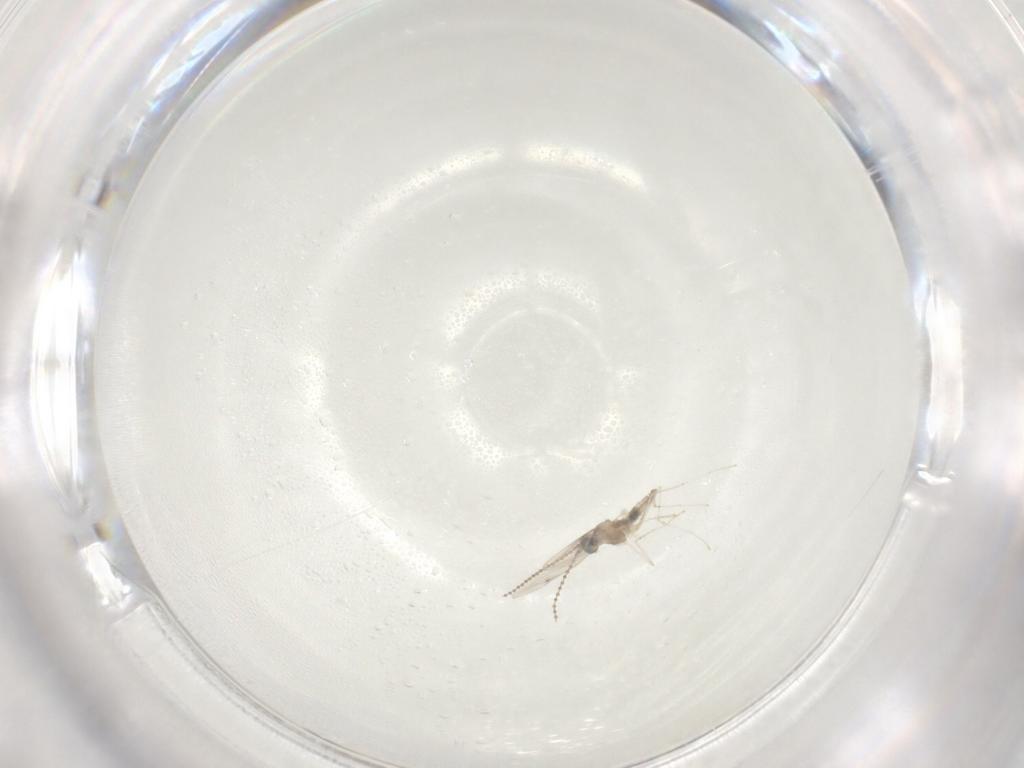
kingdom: Animalia
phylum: Arthropoda
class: Insecta
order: Diptera
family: Cecidomyiidae
